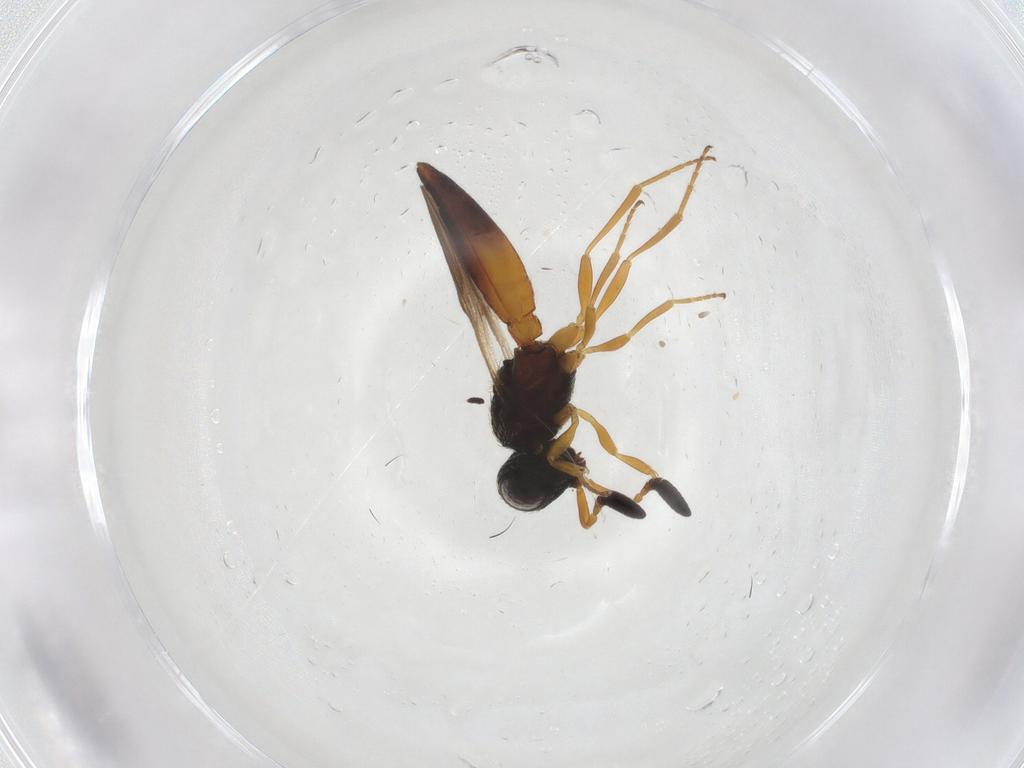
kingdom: Animalia
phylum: Arthropoda
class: Insecta
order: Hymenoptera
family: Scelionidae
